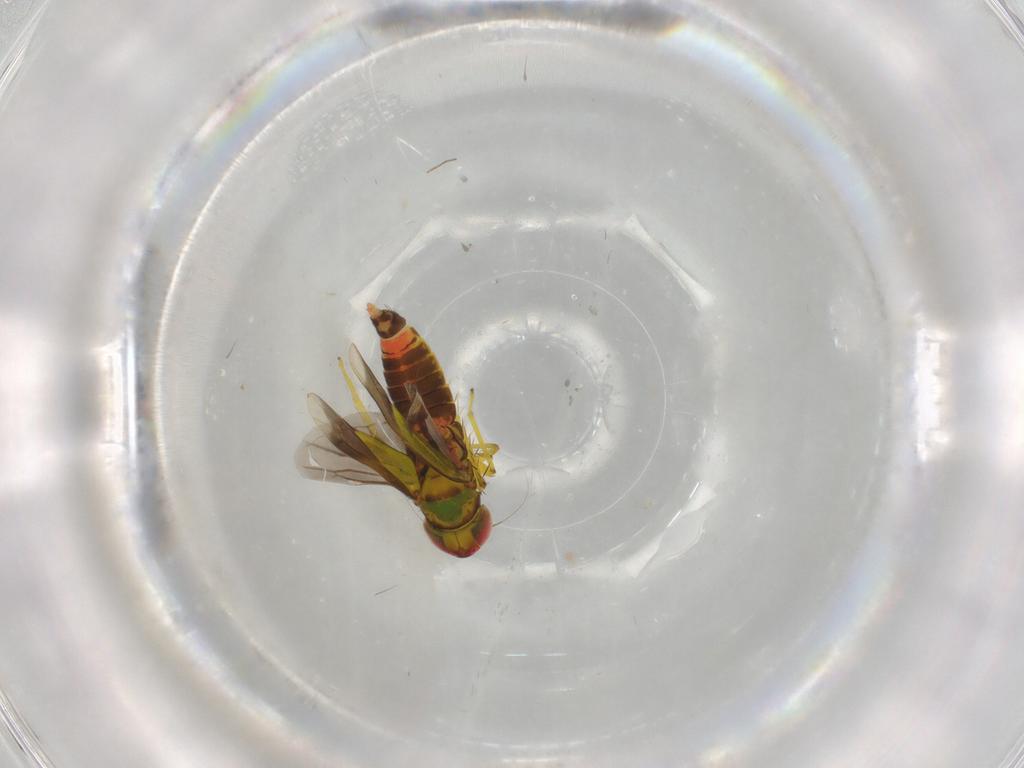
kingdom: Animalia
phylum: Arthropoda
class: Insecta
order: Hemiptera
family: Cicadellidae
